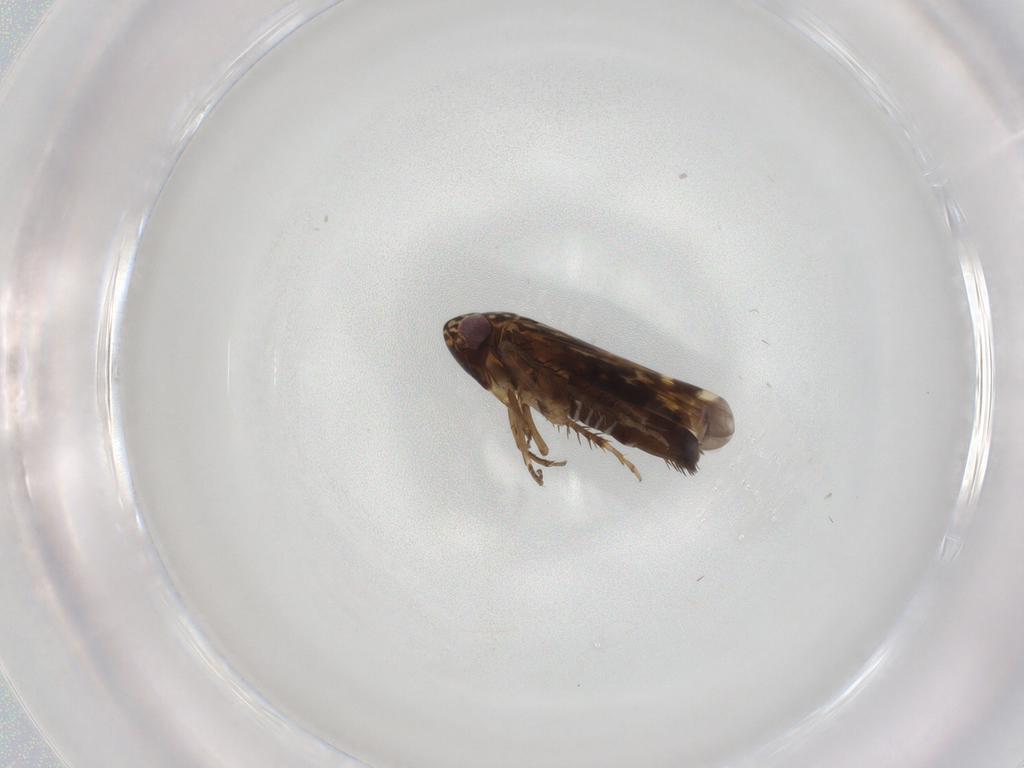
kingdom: Animalia
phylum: Arthropoda
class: Insecta
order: Hemiptera
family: Cicadellidae
